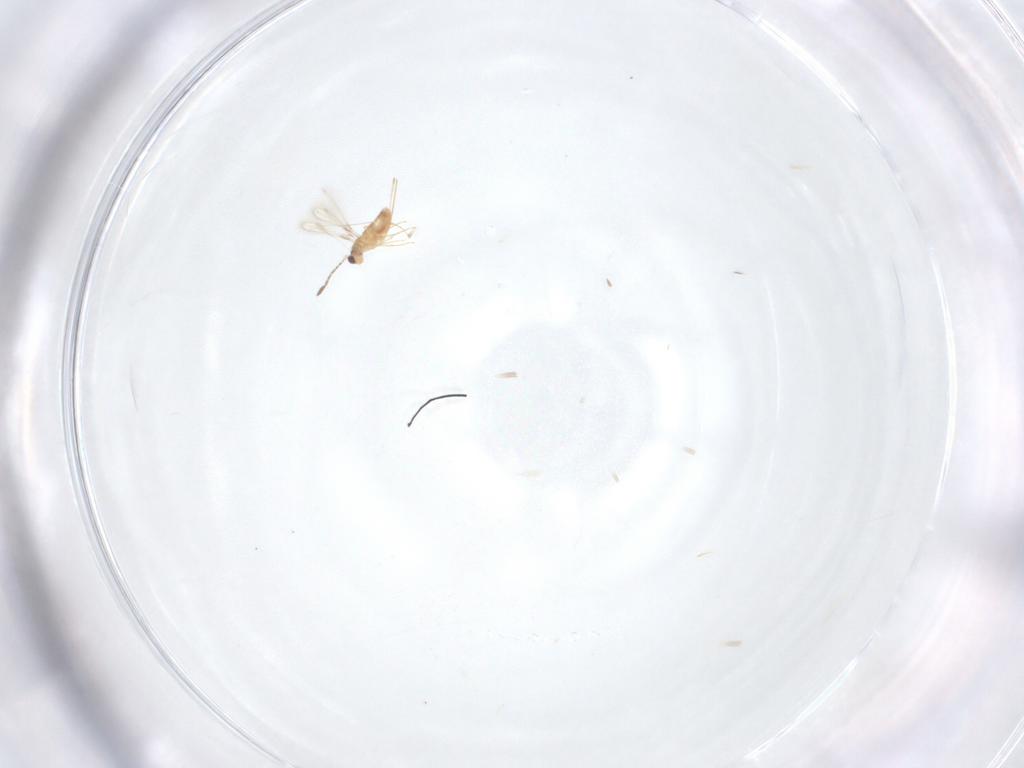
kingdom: Animalia
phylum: Arthropoda
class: Insecta
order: Hymenoptera
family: Mymaridae
